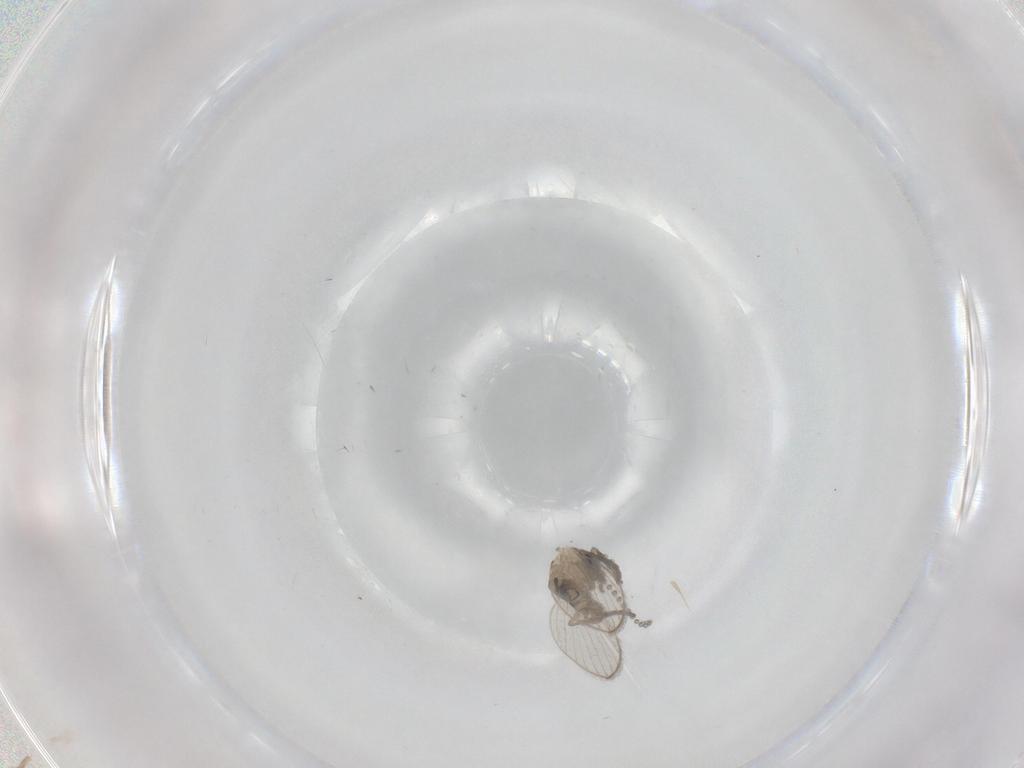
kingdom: Animalia
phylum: Arthropoda
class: Insecta
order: Diptera
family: Psychodidae
